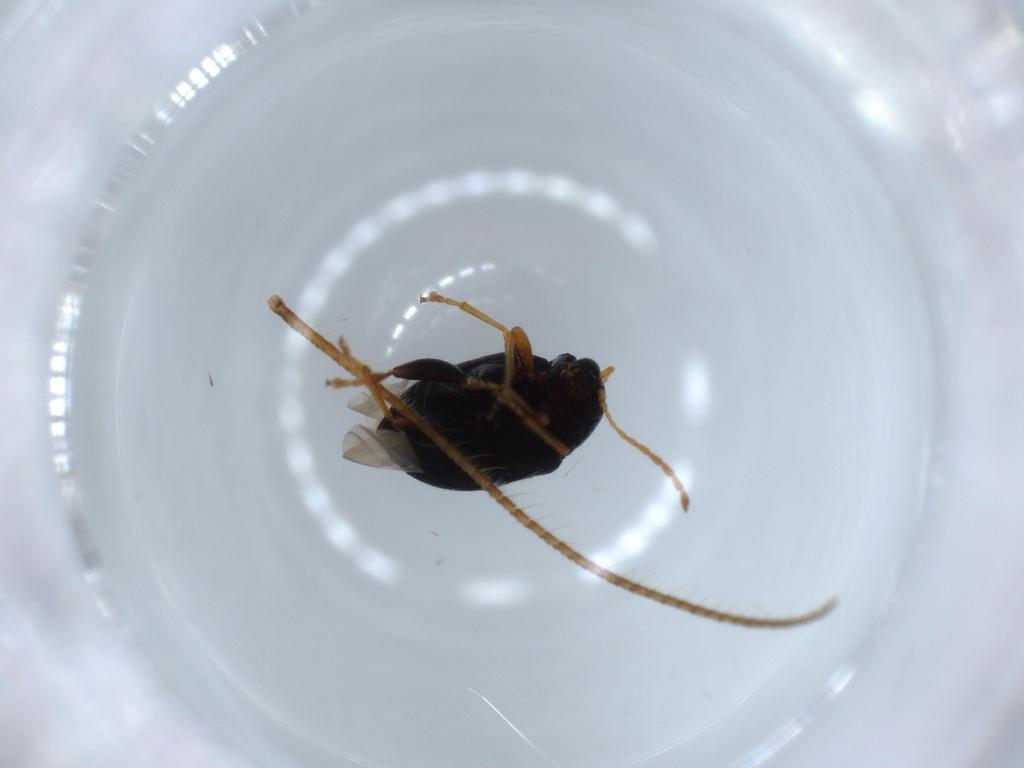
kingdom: Animalia
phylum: Arthropoda
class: Insecta
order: Coleoptera
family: Chrysomelidae
